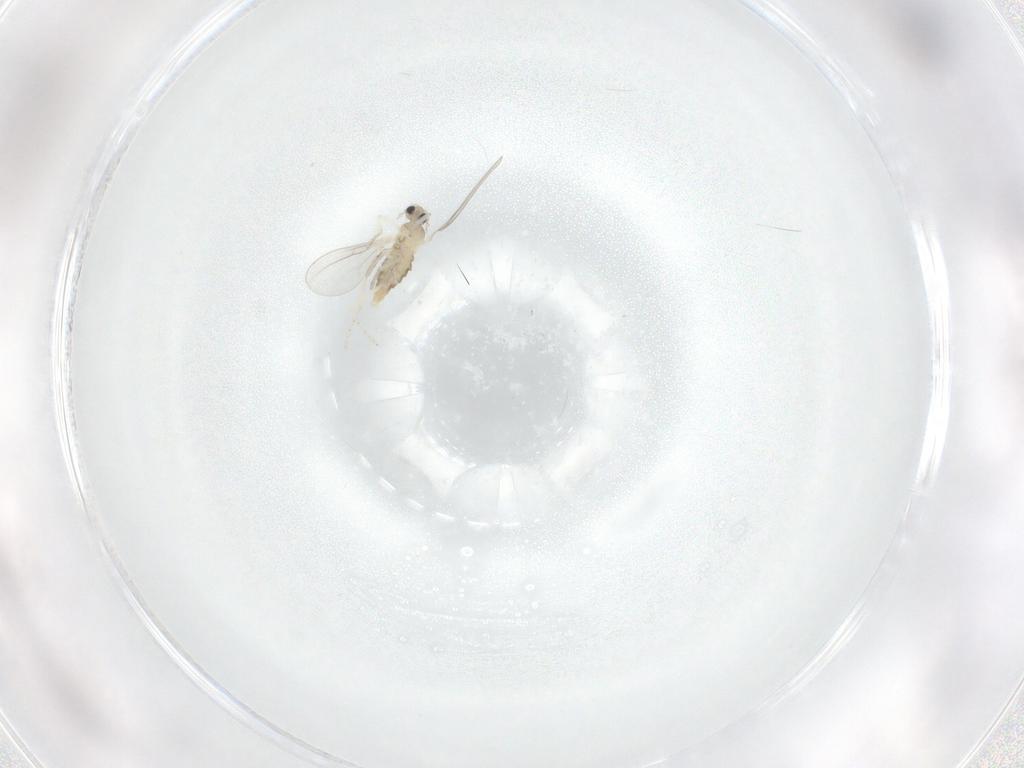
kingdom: Animalia
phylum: Arthropoda
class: Insecta
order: Diptera
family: Cecidomyiidae
